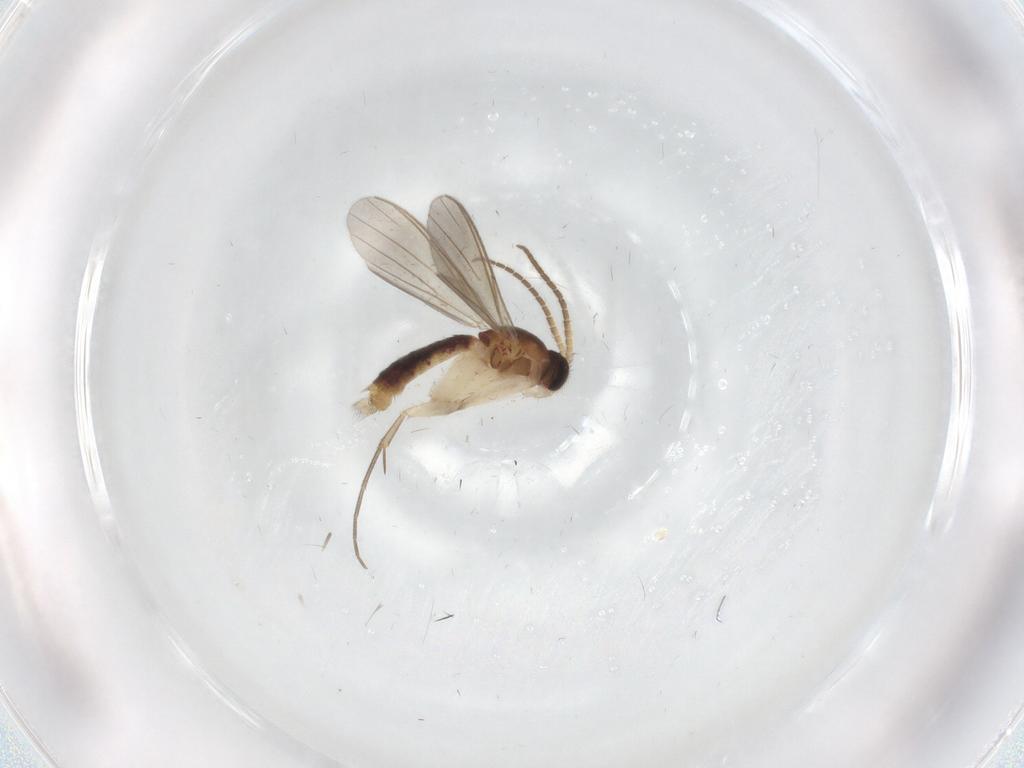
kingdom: Animalia
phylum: Arthropoda
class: Insecta
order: Diptera
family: Mycetophilidae
